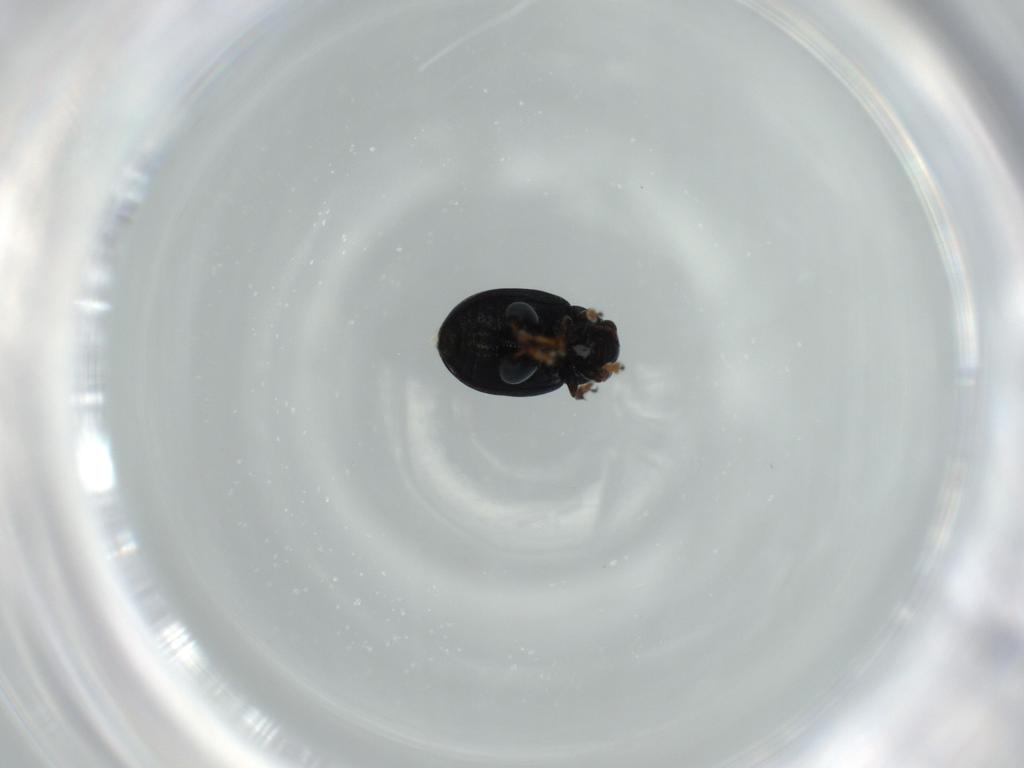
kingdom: Animalia
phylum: Arthropoda
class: Insecta
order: Coleoptera
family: Chrysomelidae
